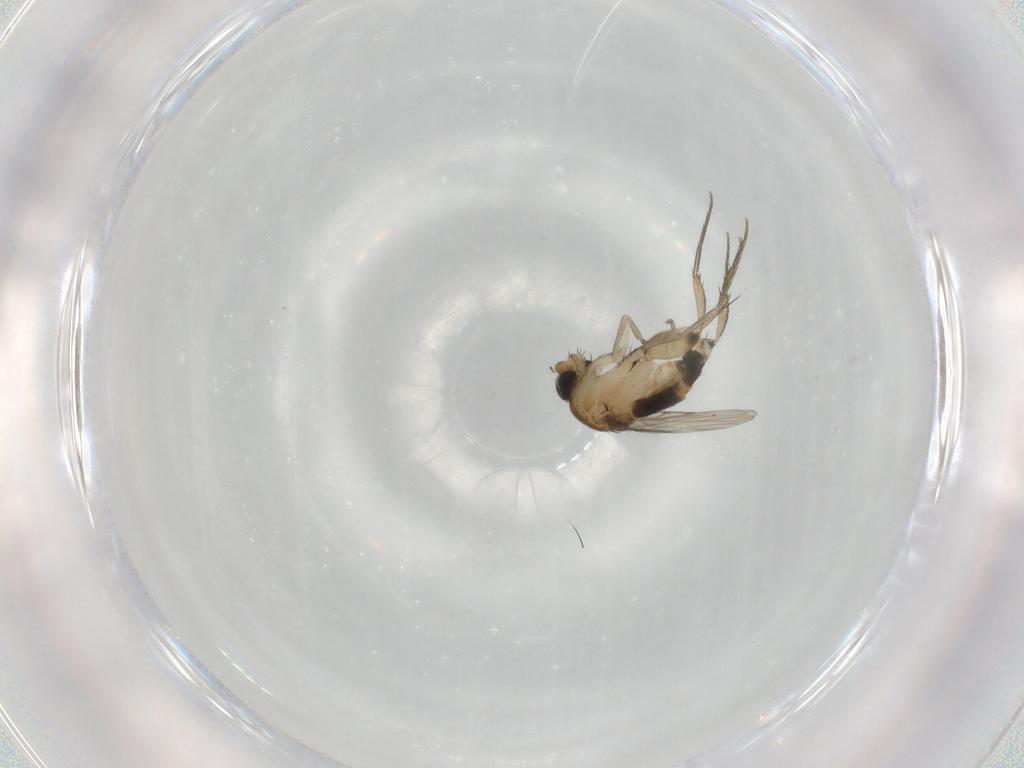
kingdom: Animalia
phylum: Arthropoda
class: Insecta
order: Diptera
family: Phoridae
